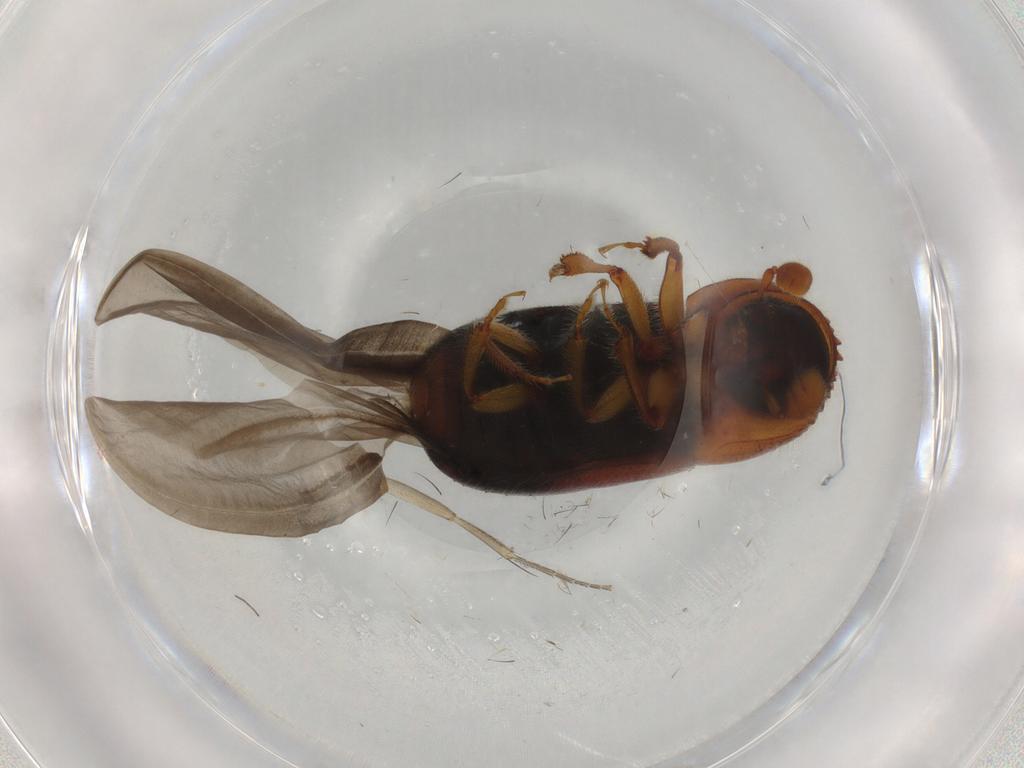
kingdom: Animalia
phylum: Arthropoda
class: Insecta
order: Coleoptera
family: Curculionidae
